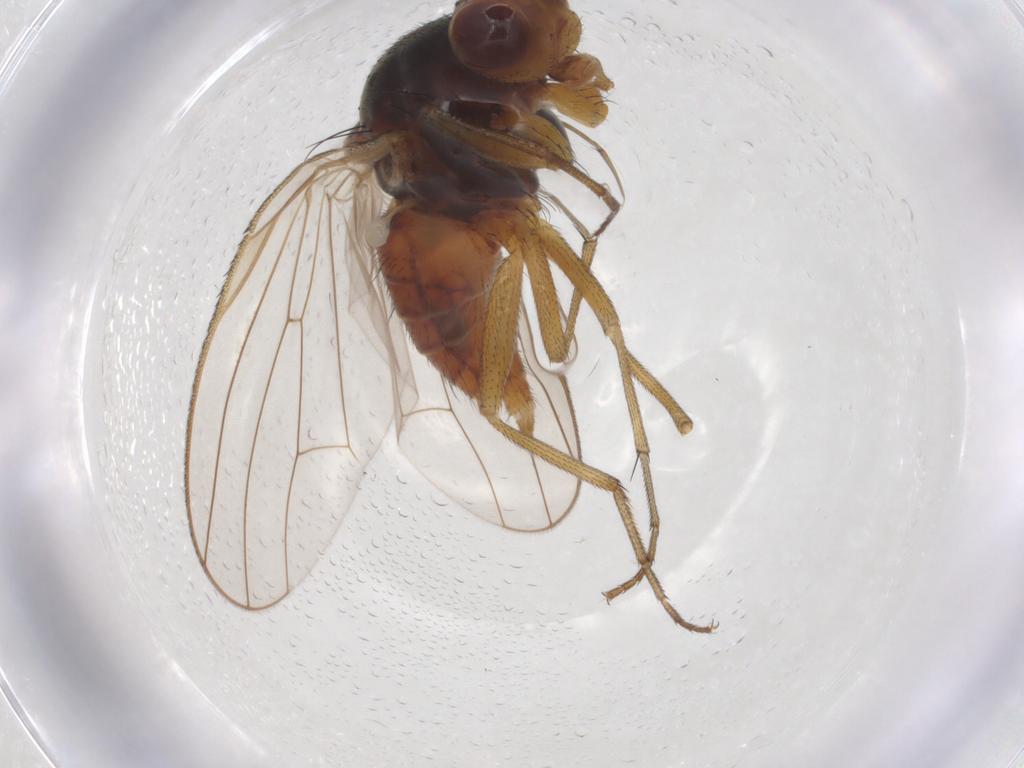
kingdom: Animalia
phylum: Arthropoda
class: Insecta
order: Diptera
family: Heleomyzidae
